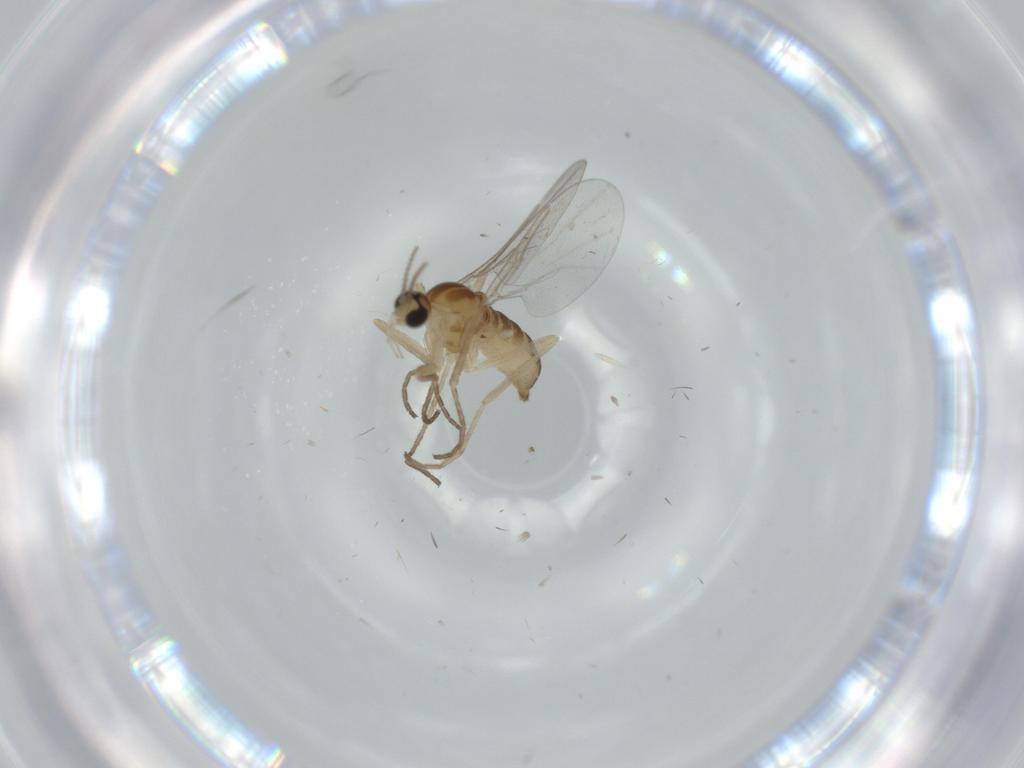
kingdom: Animalia
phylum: Arthropoda
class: Insecta
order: Diptera
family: Cecidomyiidae
